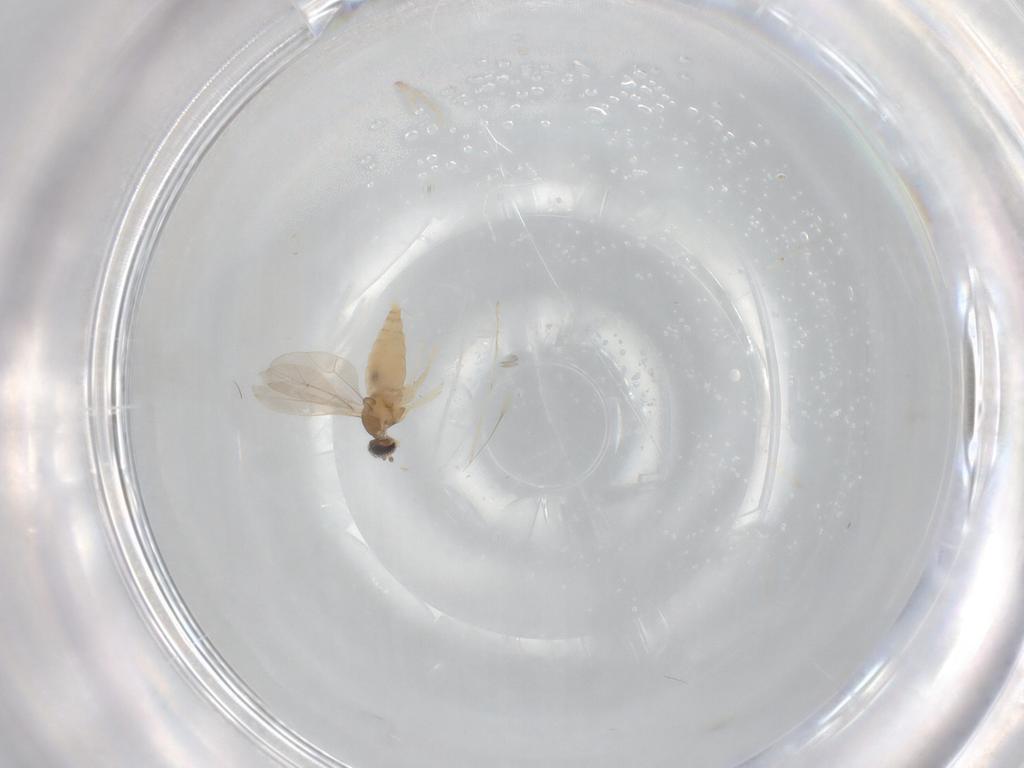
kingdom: Animalia
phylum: Arthropoda
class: Insecta
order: Diptera
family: Cecidomyiidae
